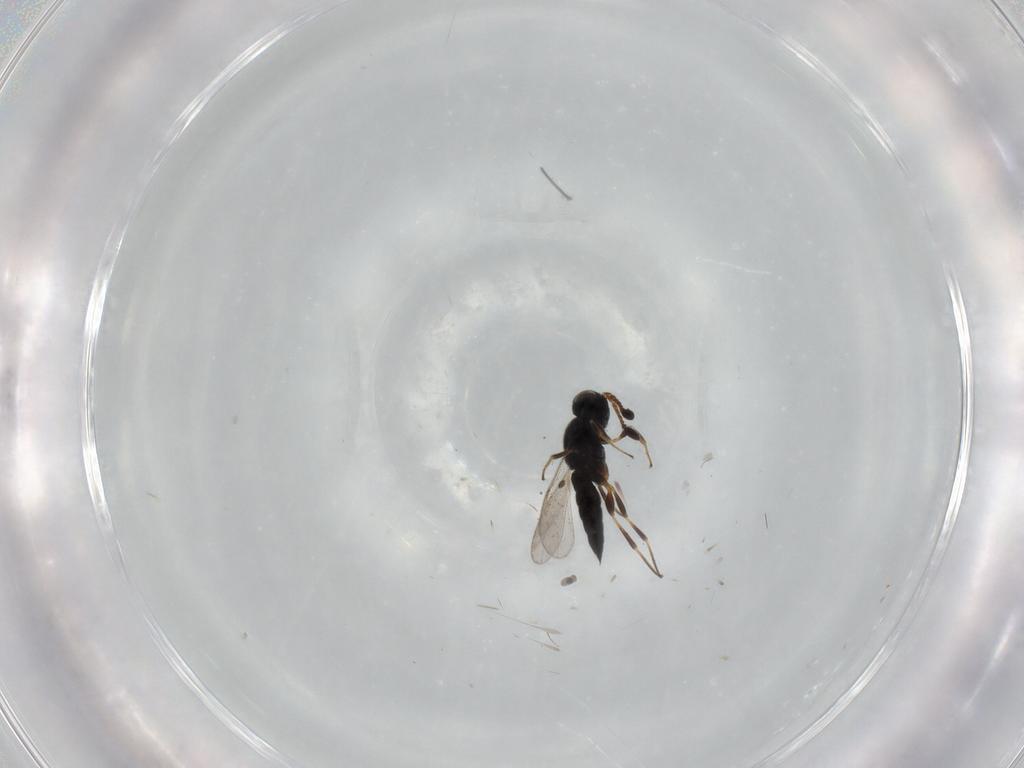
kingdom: Animalia
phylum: Arthropoda
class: Insecta
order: Hymenoptera
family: Scelionidae
